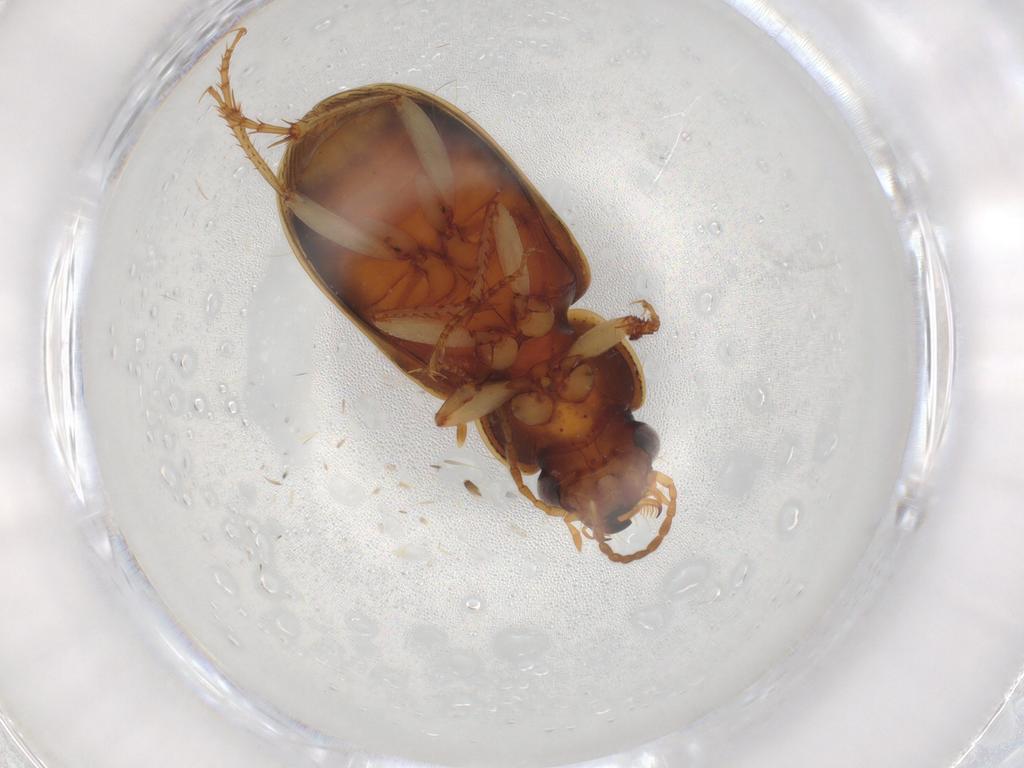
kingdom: Animalia
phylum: Arthropoda
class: Insecta
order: Coleoptera
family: Carabidae
